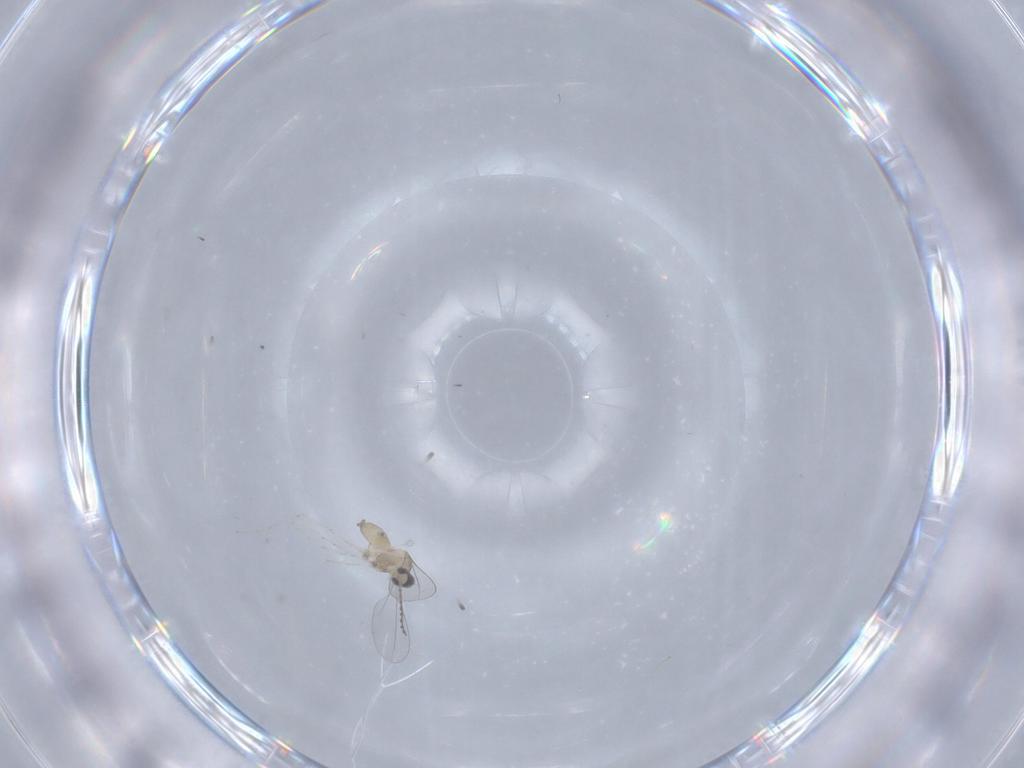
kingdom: Animalia
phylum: Arthropoda
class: Insecta
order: Diptera
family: Cecidomyiidae
